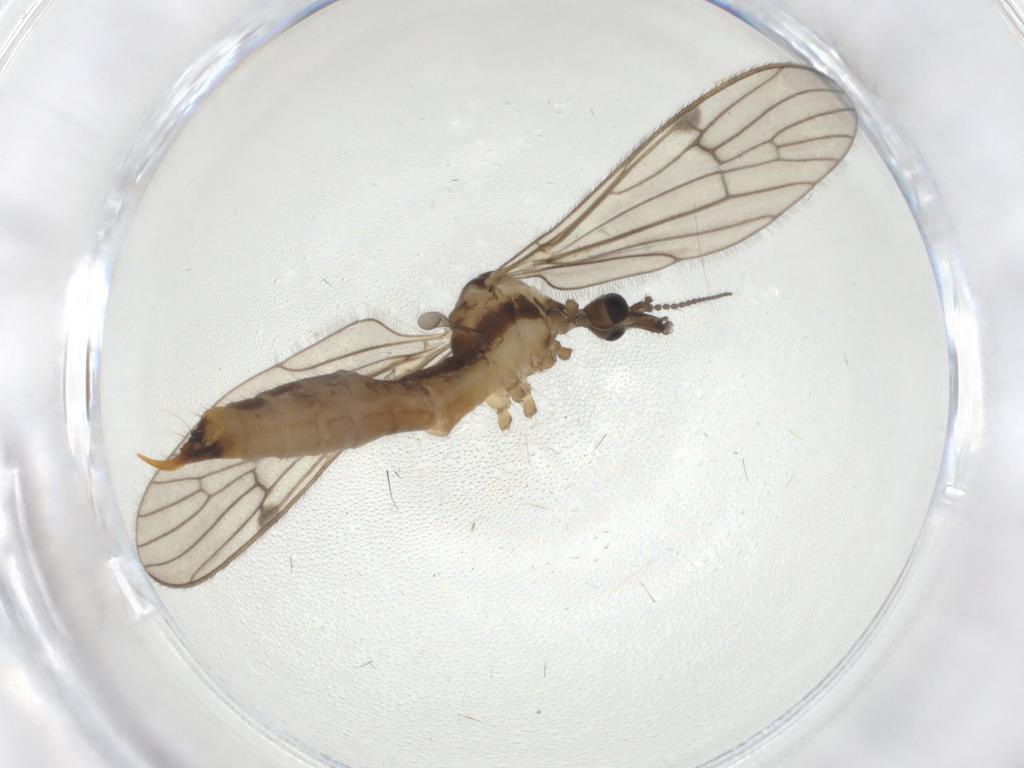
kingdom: Animalia
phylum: Arthropoda
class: Insecta
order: Diptera
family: Limoniidae
